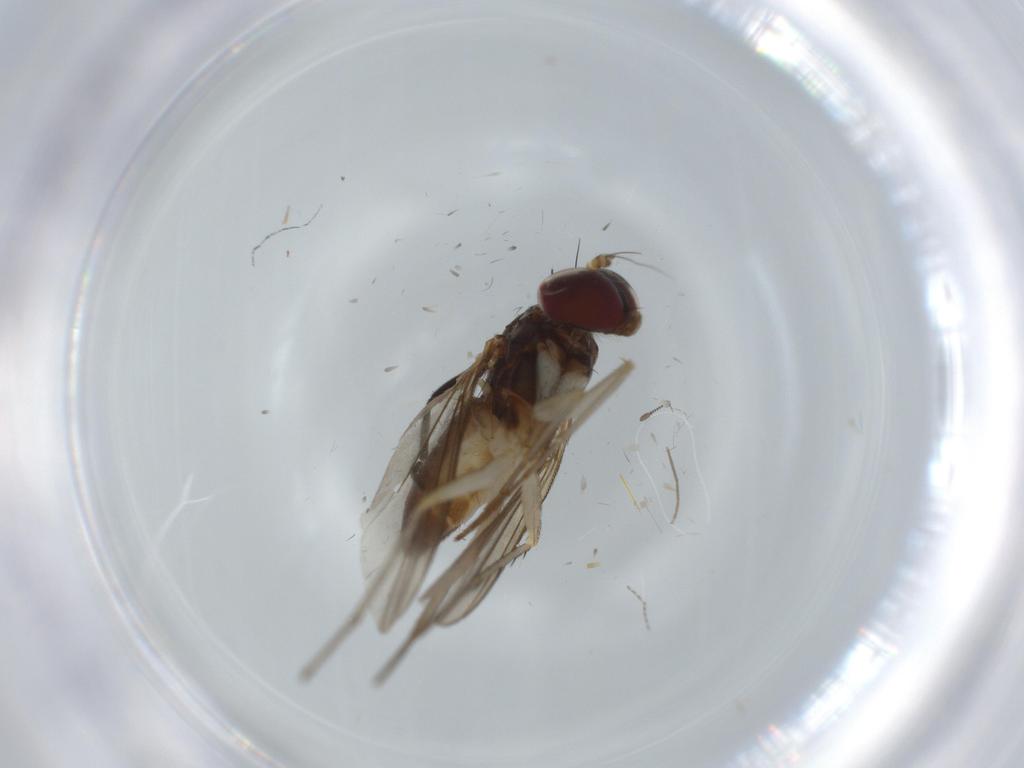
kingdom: Animalia
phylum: Arthropoda
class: Insecta
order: Diptera
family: Dolichopodidae
